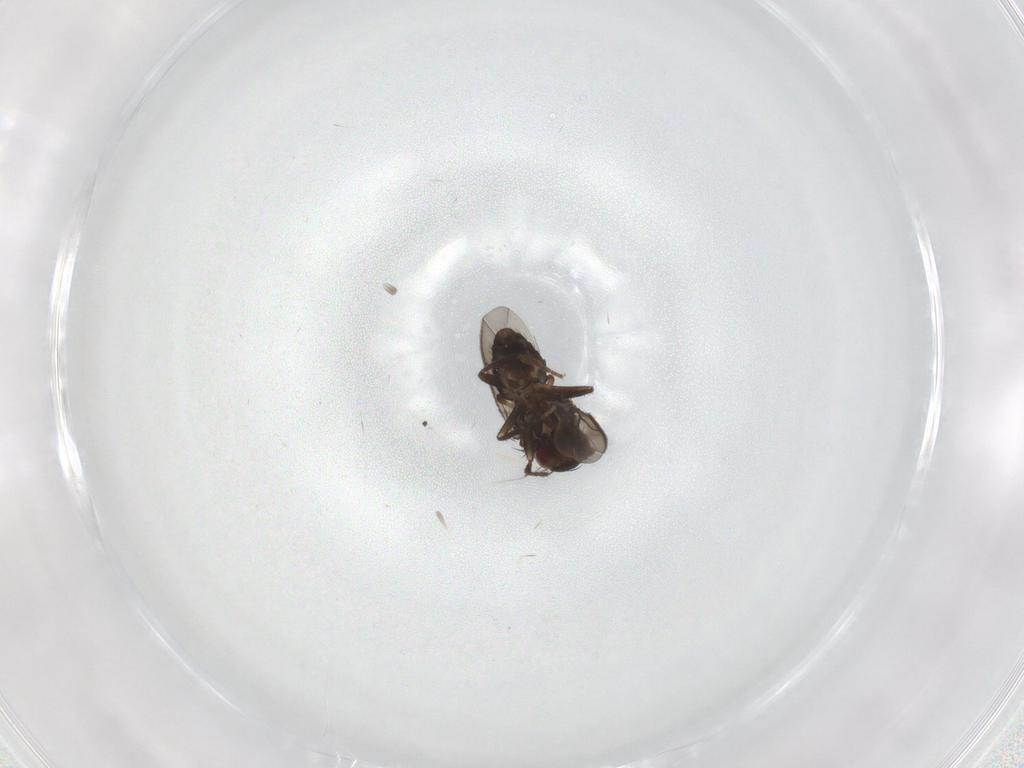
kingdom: Animalia
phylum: Arthropoda
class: Insecta
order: Diptera
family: Sphaeroceridae
